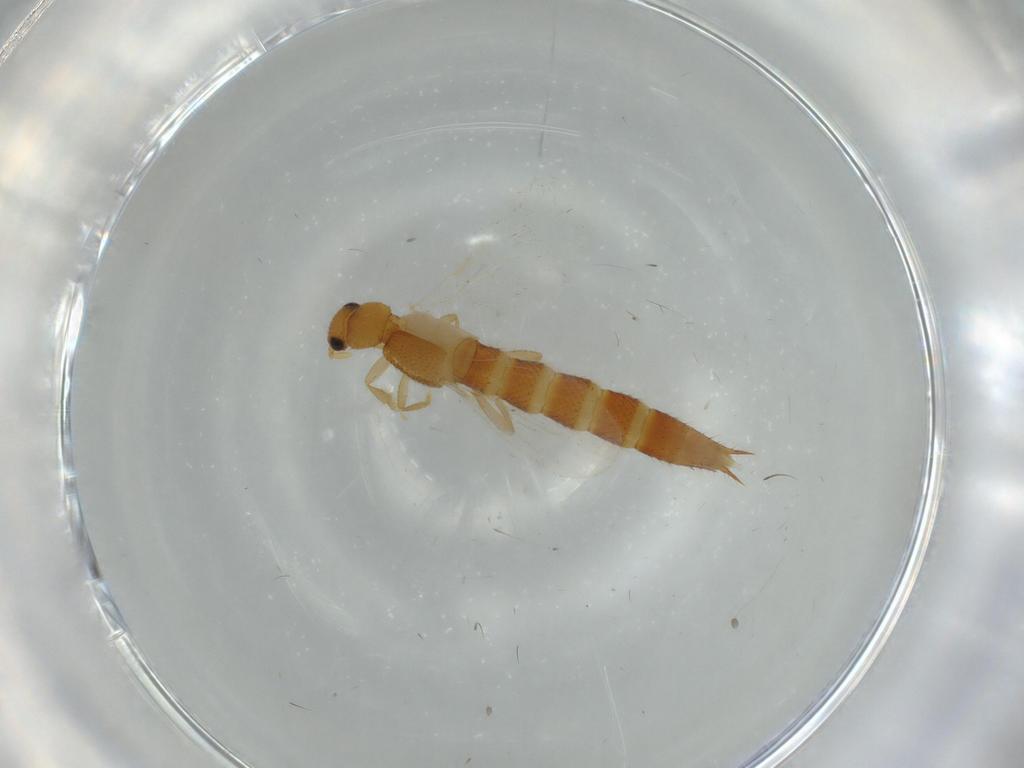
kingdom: Animalia
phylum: Arthropoda
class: Insecta
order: Coleoptera
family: Staphylinidae
